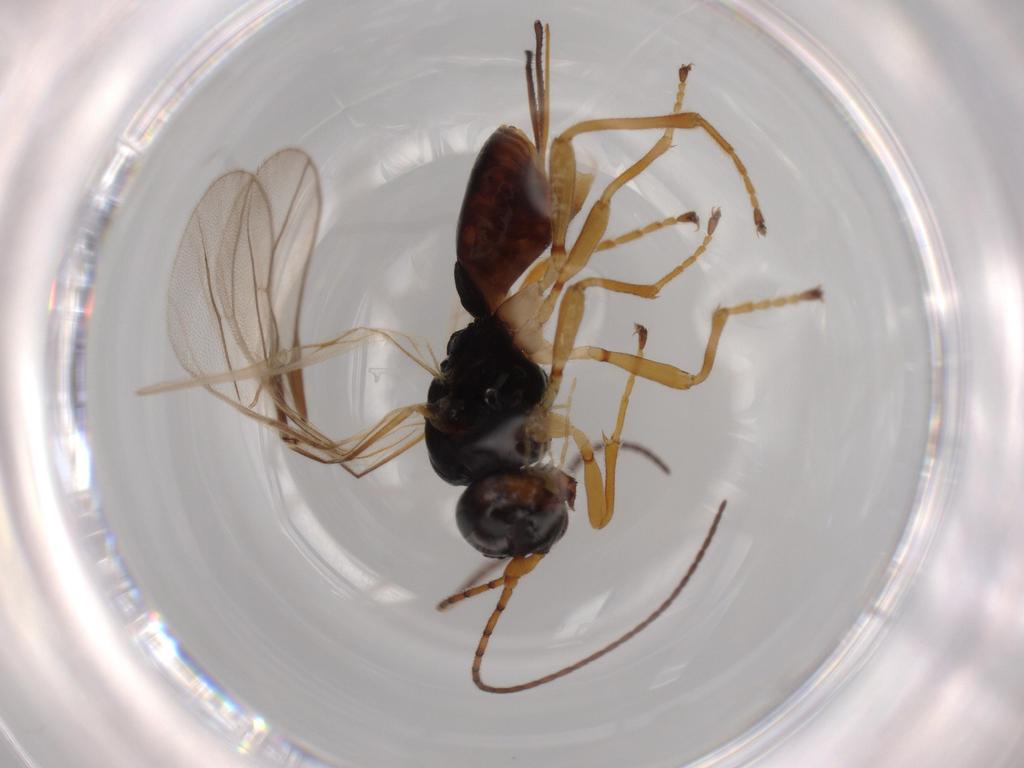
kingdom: Animalia
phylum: Arthropoda
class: Insecta
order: Hymenoptera
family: Braconidae
